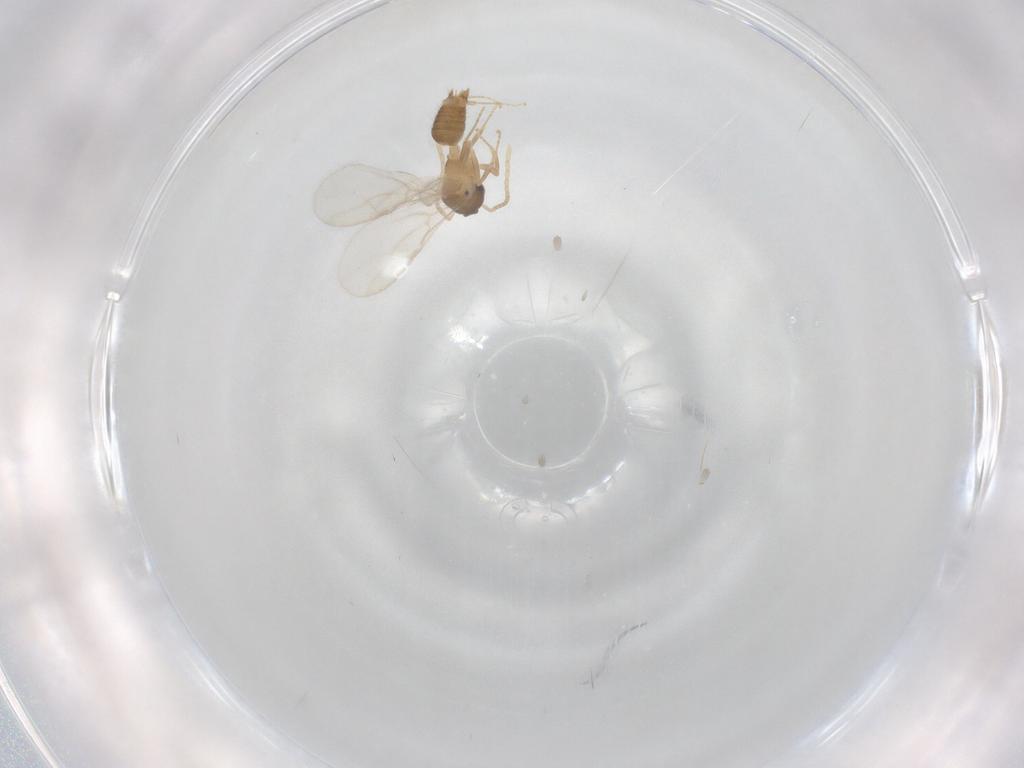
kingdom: Animalia
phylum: Arthropoda
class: Insecta
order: Hymenoptera
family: Formicidae
